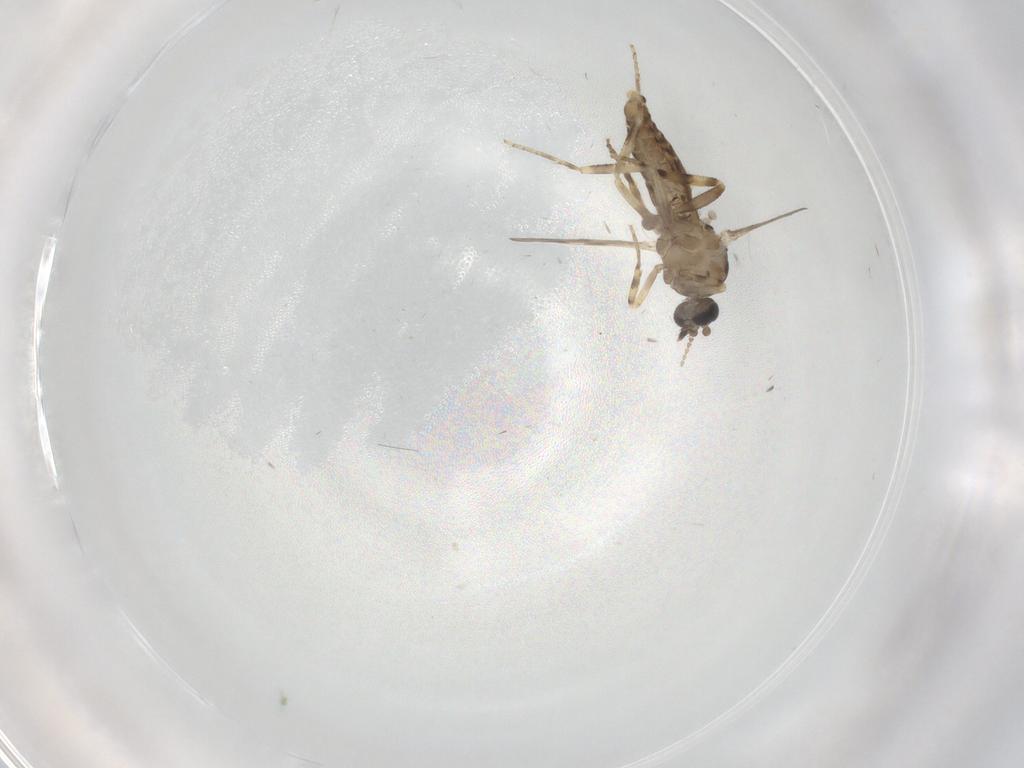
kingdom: Animalia
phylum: Arthropoda
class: Insecta
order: Diptera
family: Ceratopogonidae
